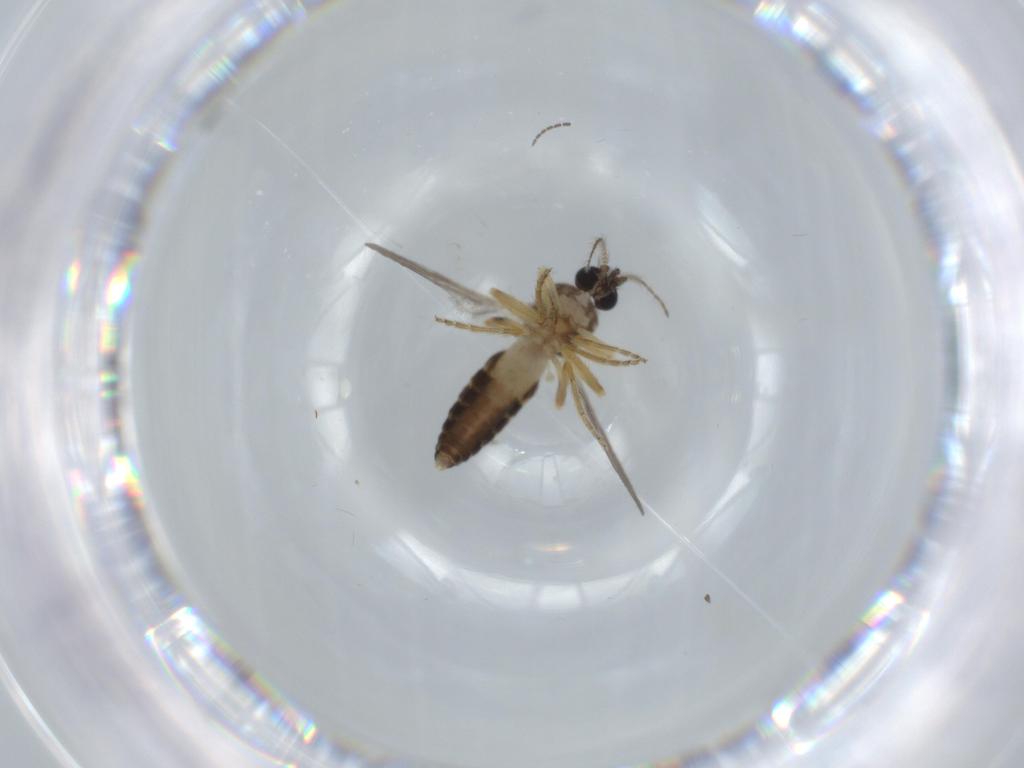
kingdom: Animalia
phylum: Arthropoda
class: Insecta
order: Diptera
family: Ceratopogonidae
